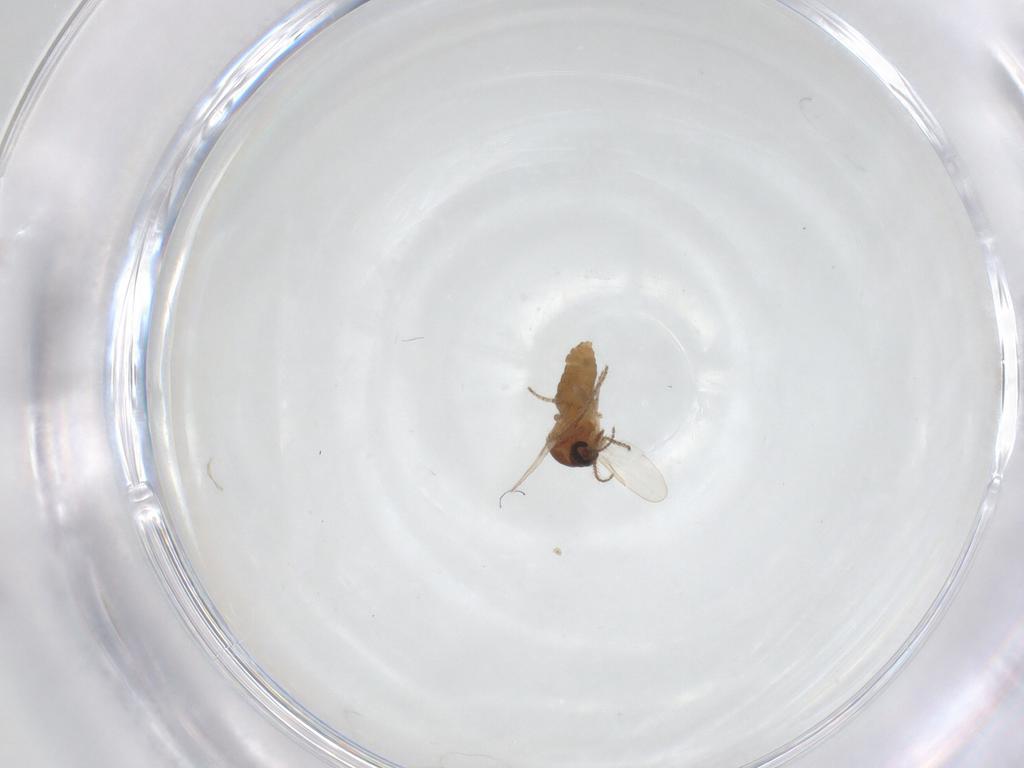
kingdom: Animalia
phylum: Arthropoda
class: Insecta
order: Diptera
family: Ceratopogonidae
